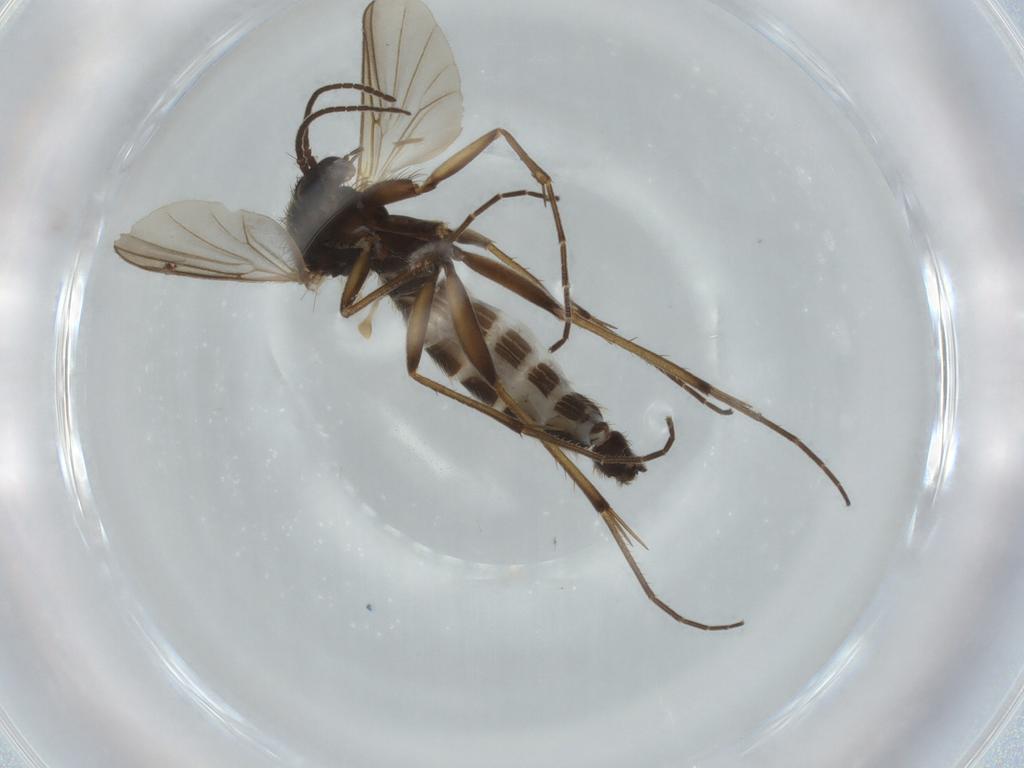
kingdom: Animalia
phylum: Arthropoda
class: Insecta
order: Diptera
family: Mycetophilidae
